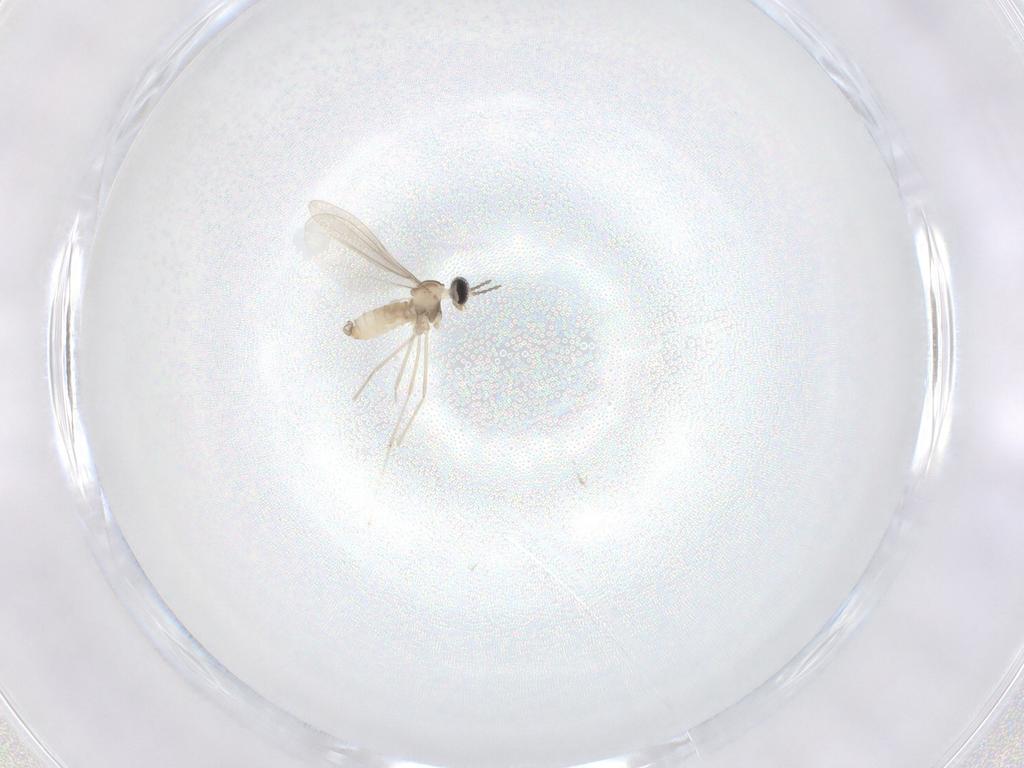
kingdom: Animalia
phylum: Arthropoda
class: Insecta
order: Diptera
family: Cecidomyiidae
